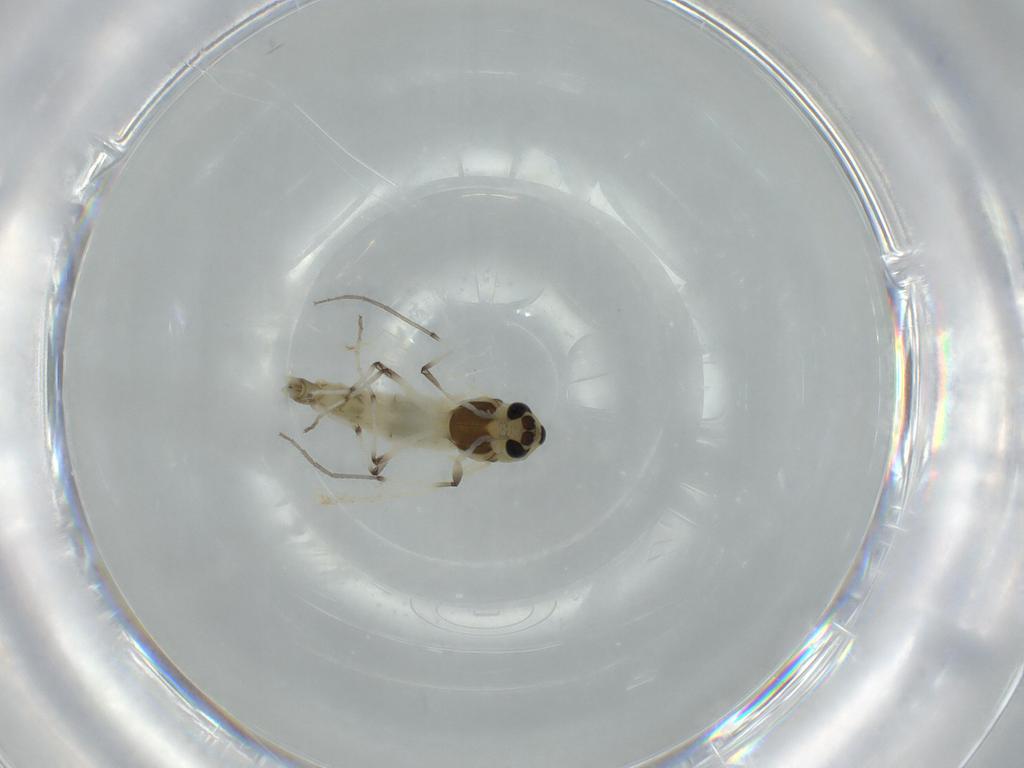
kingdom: Animalia
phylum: Arthropoda
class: Insecta
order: Diptera
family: Chironomidae
